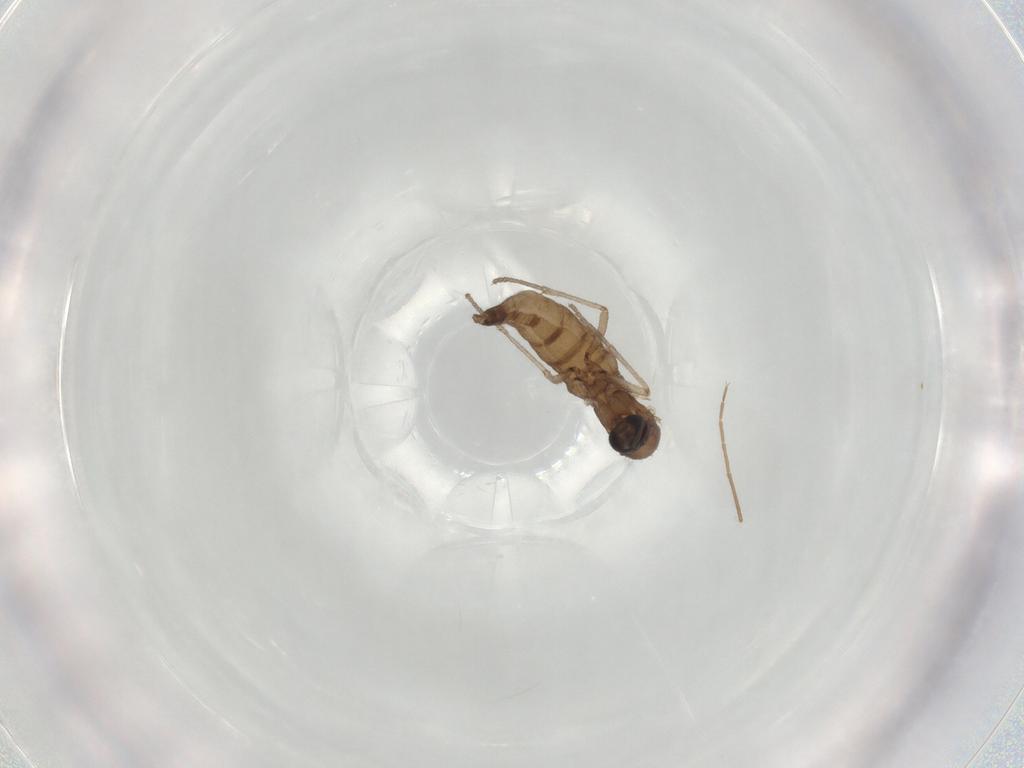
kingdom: Animalia
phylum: Arthropoda
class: Insecta
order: Diptera
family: Sciaridae
